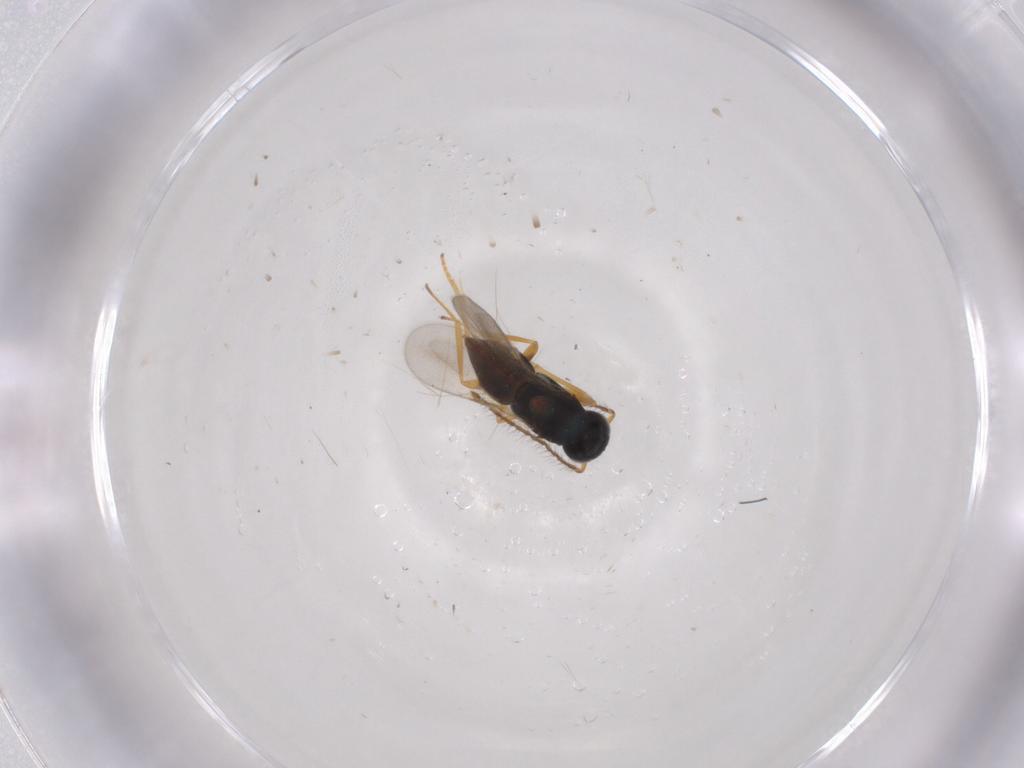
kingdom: Animalia
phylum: Arthropoda
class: Insecta
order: Hymenoptera
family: Encyrtidae
